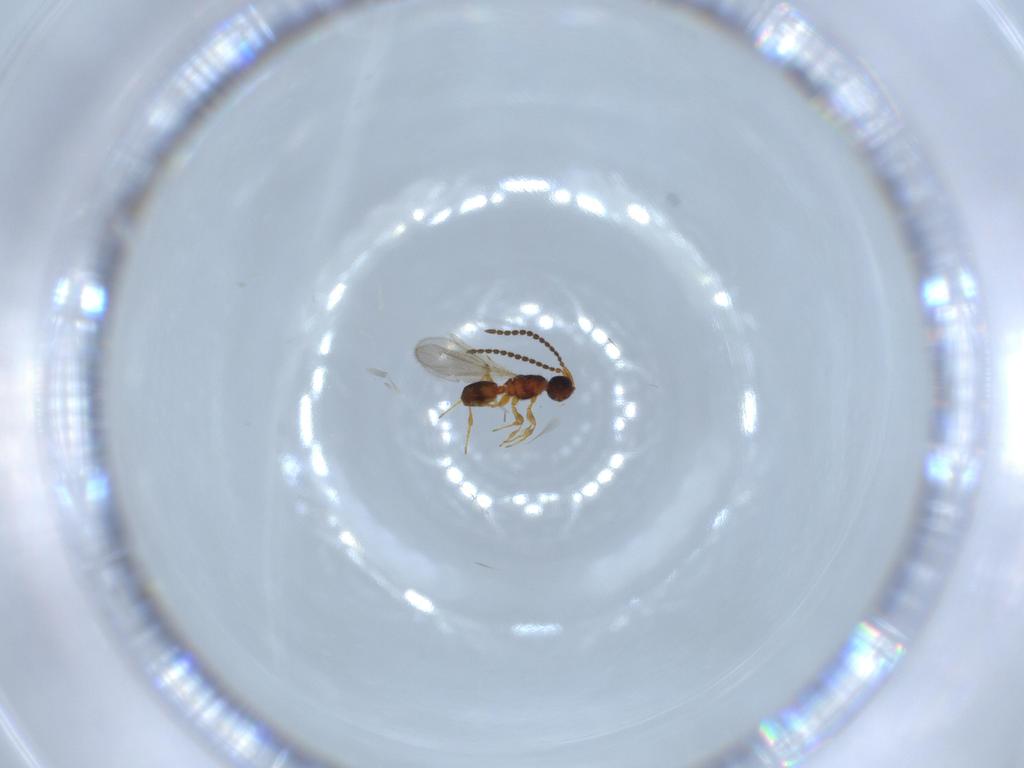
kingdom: Animalia
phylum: Arthropoda
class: Insecta
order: Hymenoptera
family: Diapriidae
